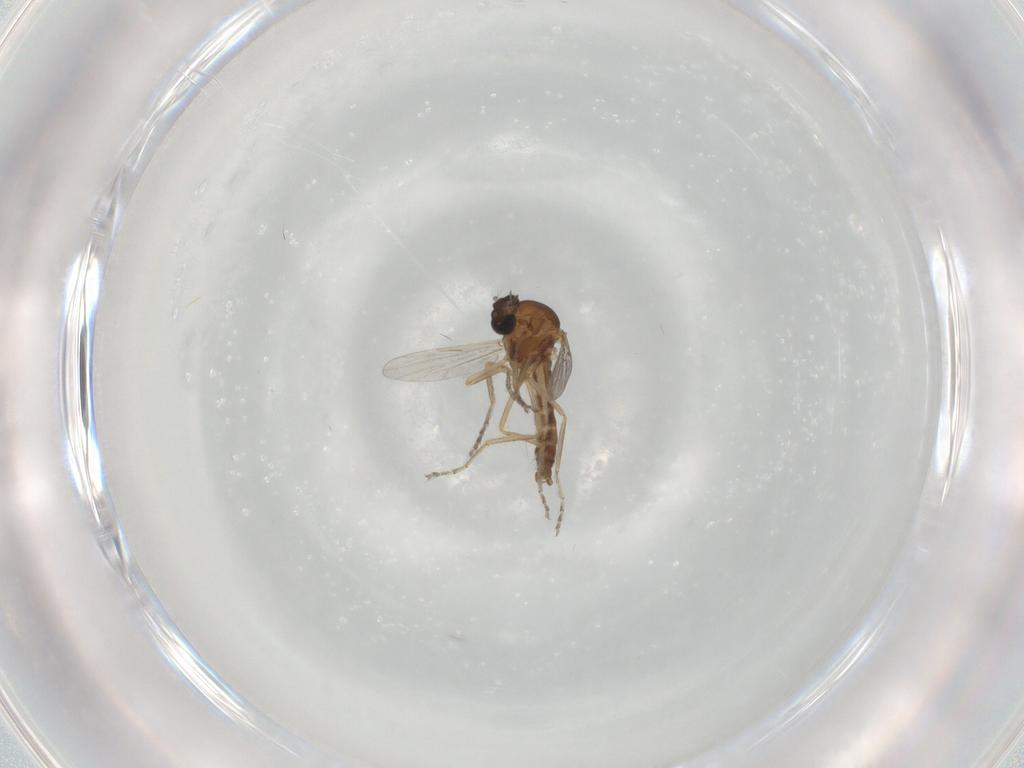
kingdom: Animalia
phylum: Arthropoda
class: Insecta
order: Diptera
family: Ceratopogonidae
